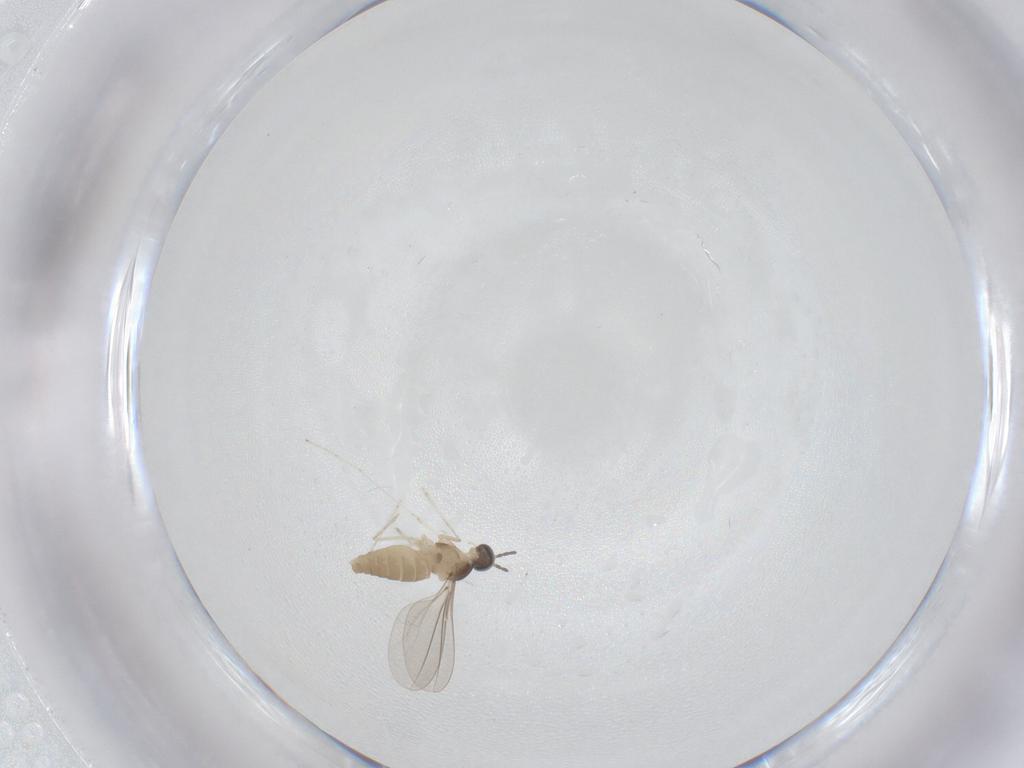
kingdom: Animalia
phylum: Arthropoda
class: Insecta
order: Diptera
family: Cecidomyiidae
